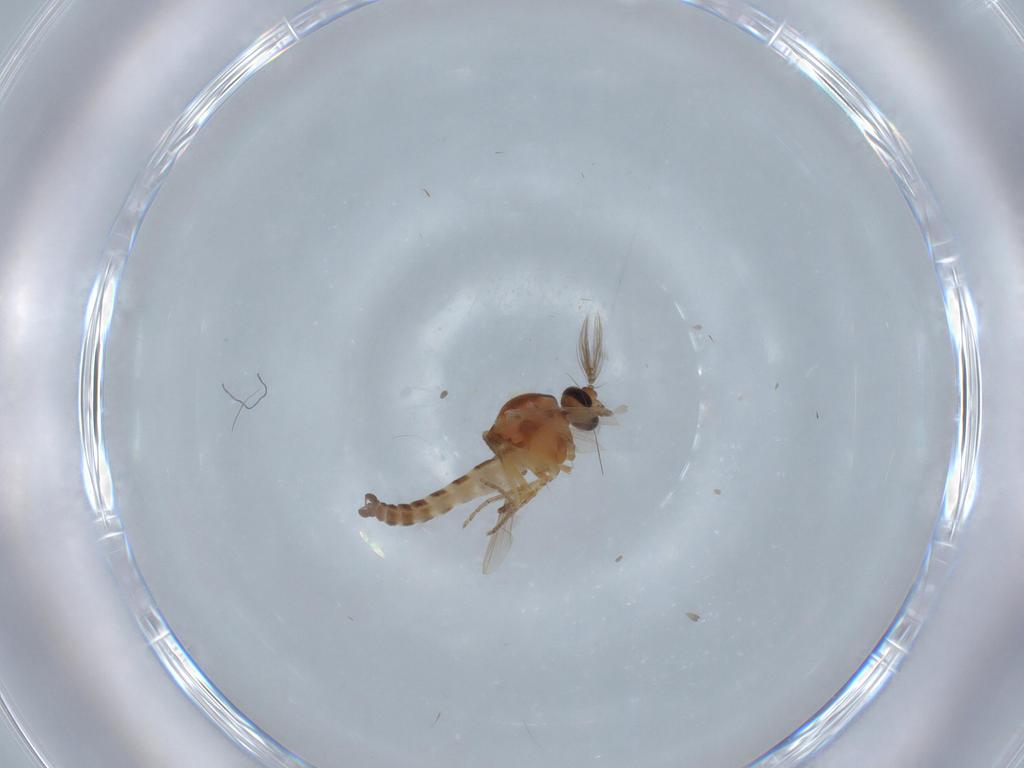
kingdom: Animalia
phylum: Arthropoda
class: Insecta
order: Diptera
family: Ceratopogonidae
